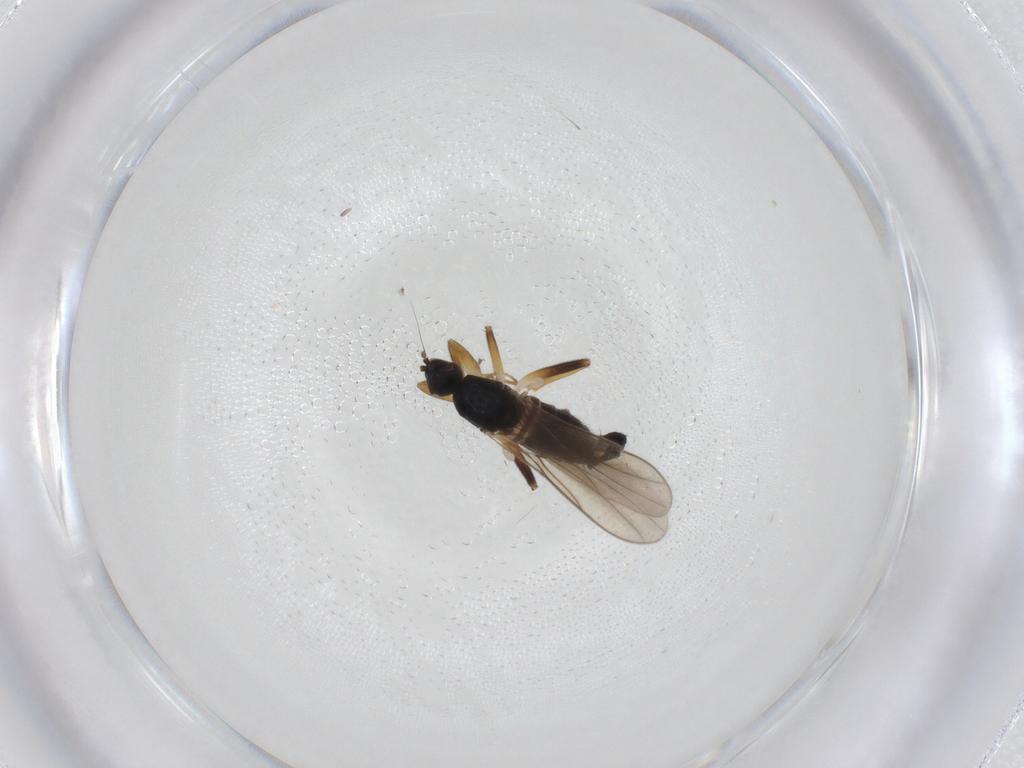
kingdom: Animalia
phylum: Arthropoda
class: Insecta
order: Diptera
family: Hybotidae
